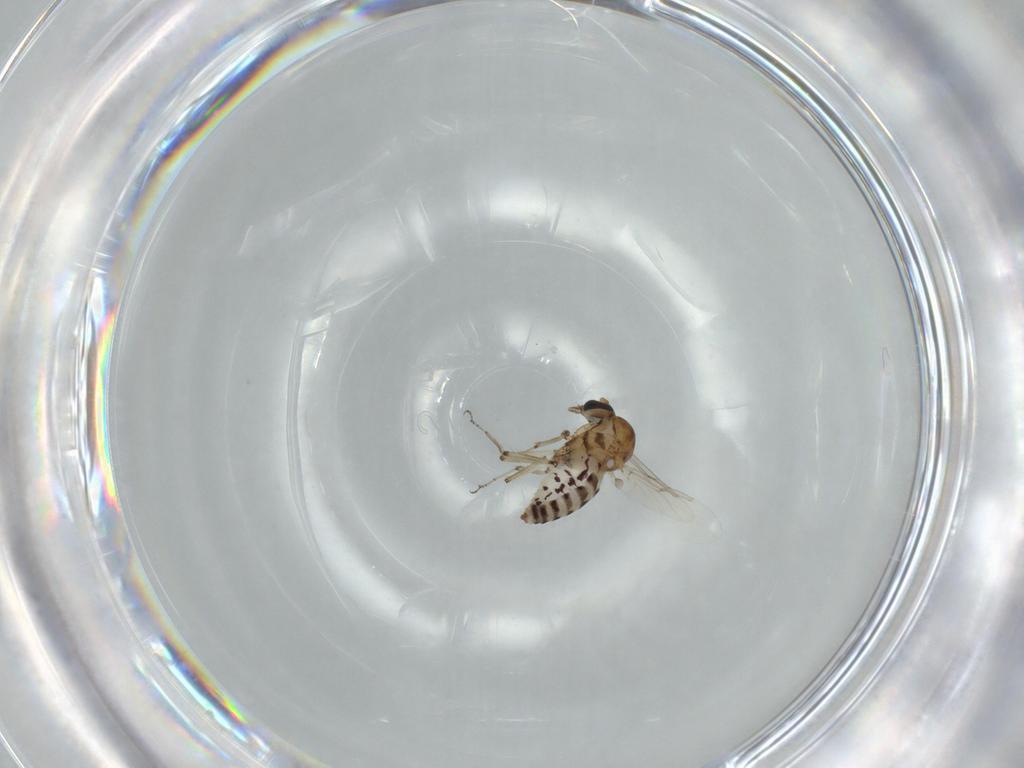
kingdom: Animalia
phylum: Arthropoda
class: Insecta
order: Diptera
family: Ceratopogonidae
